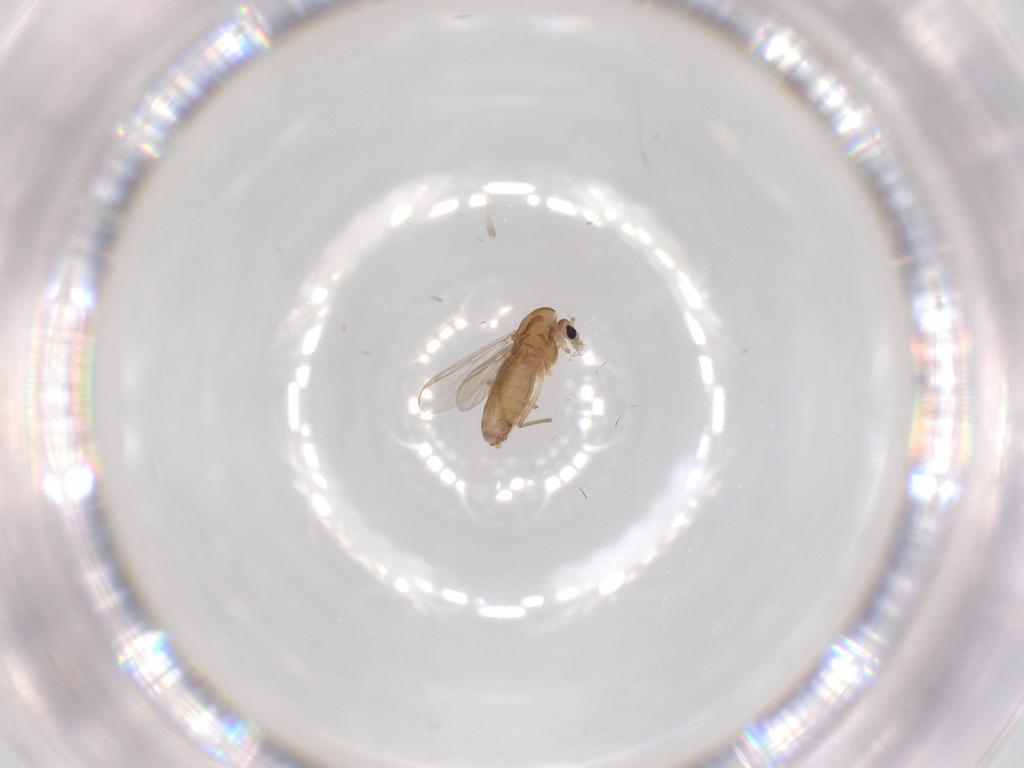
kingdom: Animalia
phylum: Arthropoda
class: Insecta
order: Diptera
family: Chironomidae
